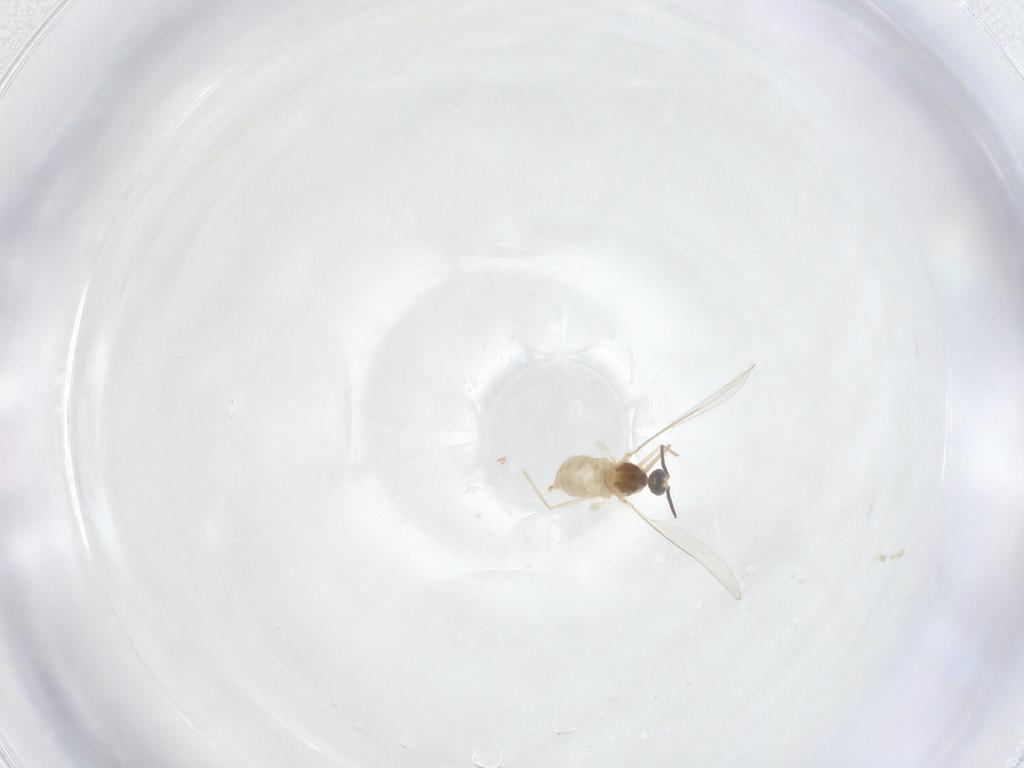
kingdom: Animalia
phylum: Arthropoda
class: Insecta
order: Diptera
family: Cecidomyiidae
